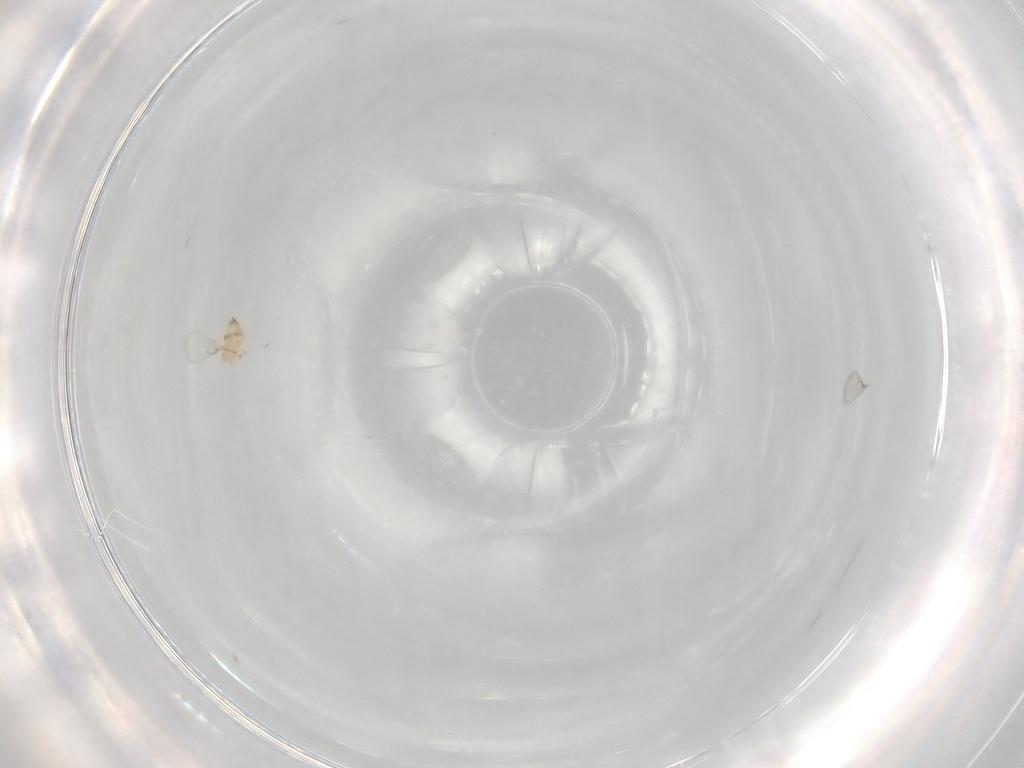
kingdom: Animalia
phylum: Arthropoda
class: Insecta
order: Hymenoptera
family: Trichogrammatidae
